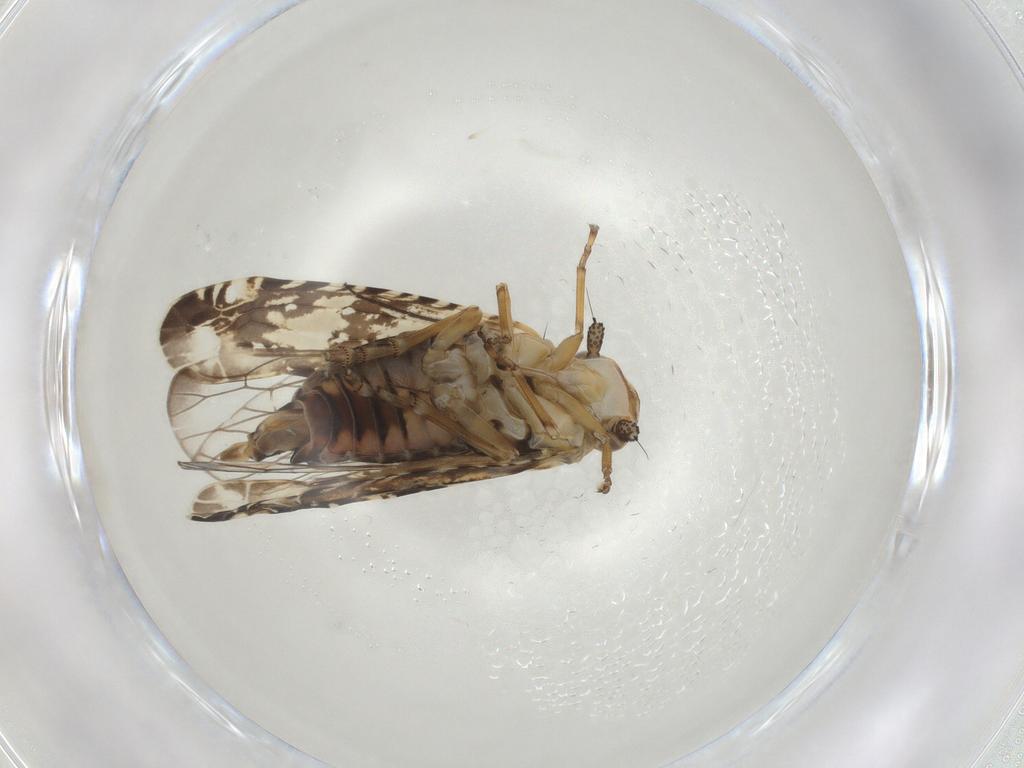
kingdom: Animalia
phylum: Arthropoda
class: Insecta
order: Hemiptera
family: Achilidae
